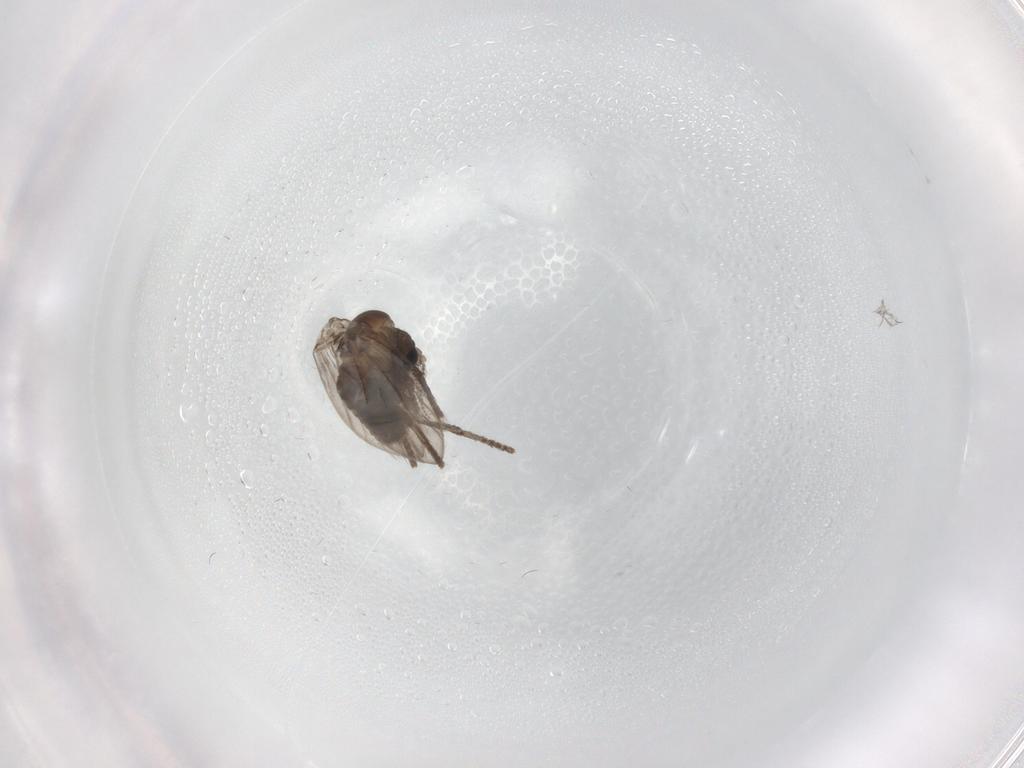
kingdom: Animalia
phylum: Arthropoda
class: Insecta
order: Diptera
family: Psychodidae
